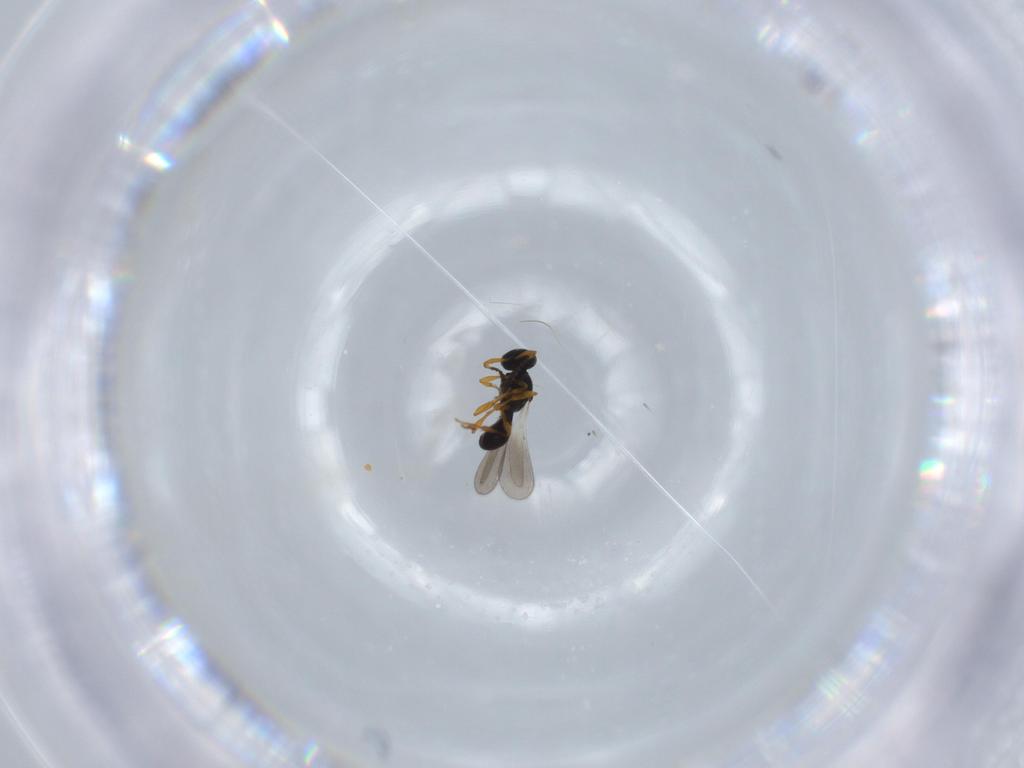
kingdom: Animalia
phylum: Arthropoda
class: Insecta
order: Hymenoptera
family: Platygastridae
